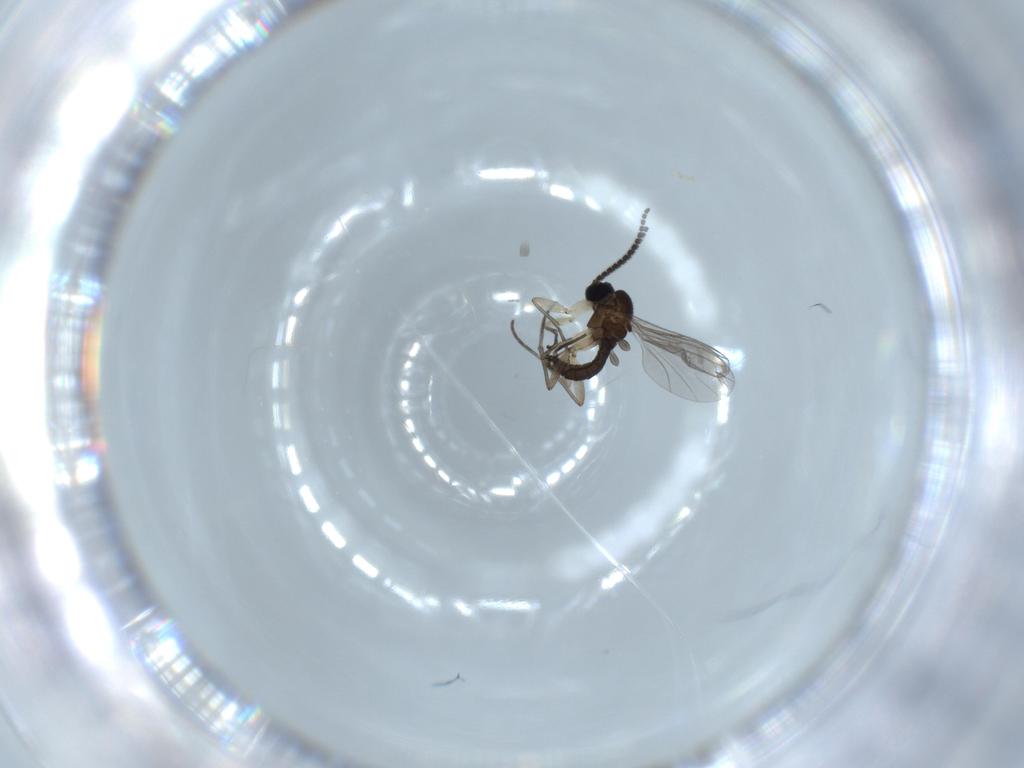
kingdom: Animalia
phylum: Arthropoda
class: Insecta
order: Diptera
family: Sciaridae
